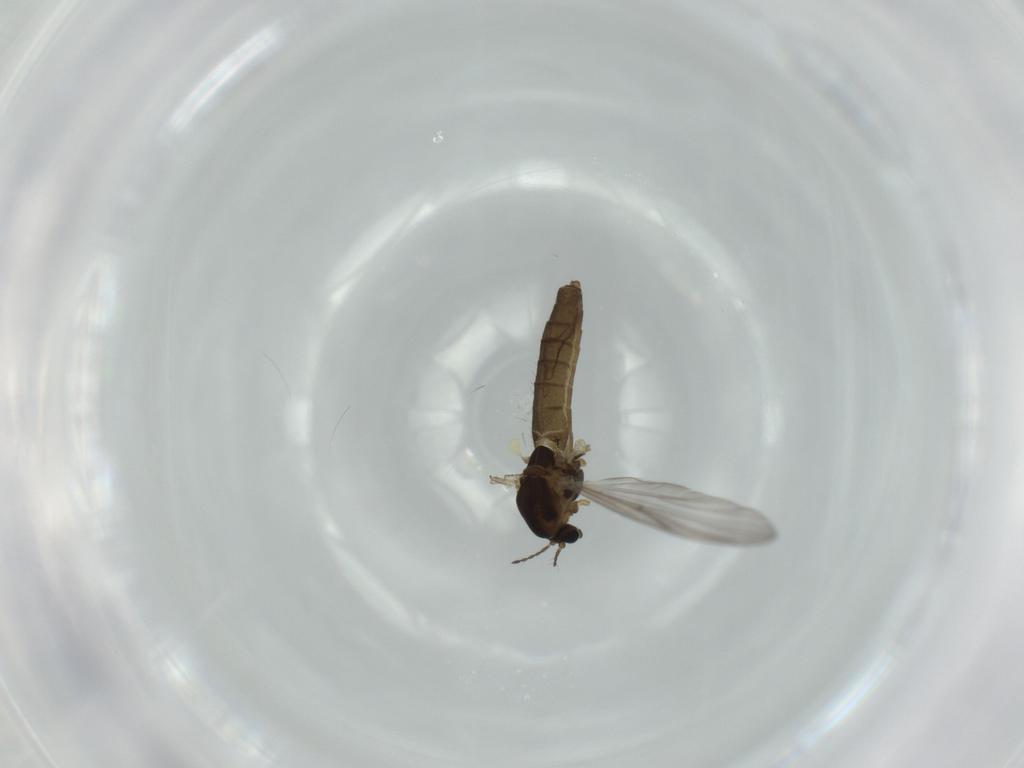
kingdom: Animalia
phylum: Arthropoda
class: Insecta
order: Diptera
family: Chironomidae
